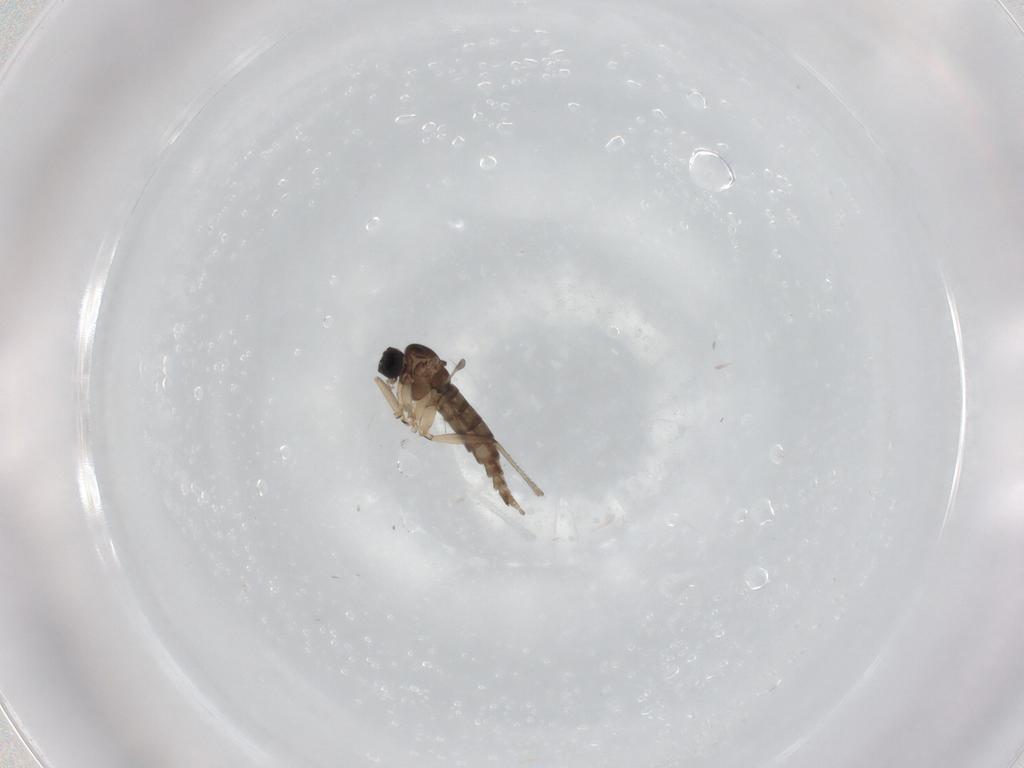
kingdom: Animalia
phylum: Arthropoda
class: Insecta
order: Diptera
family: Sciaridae
